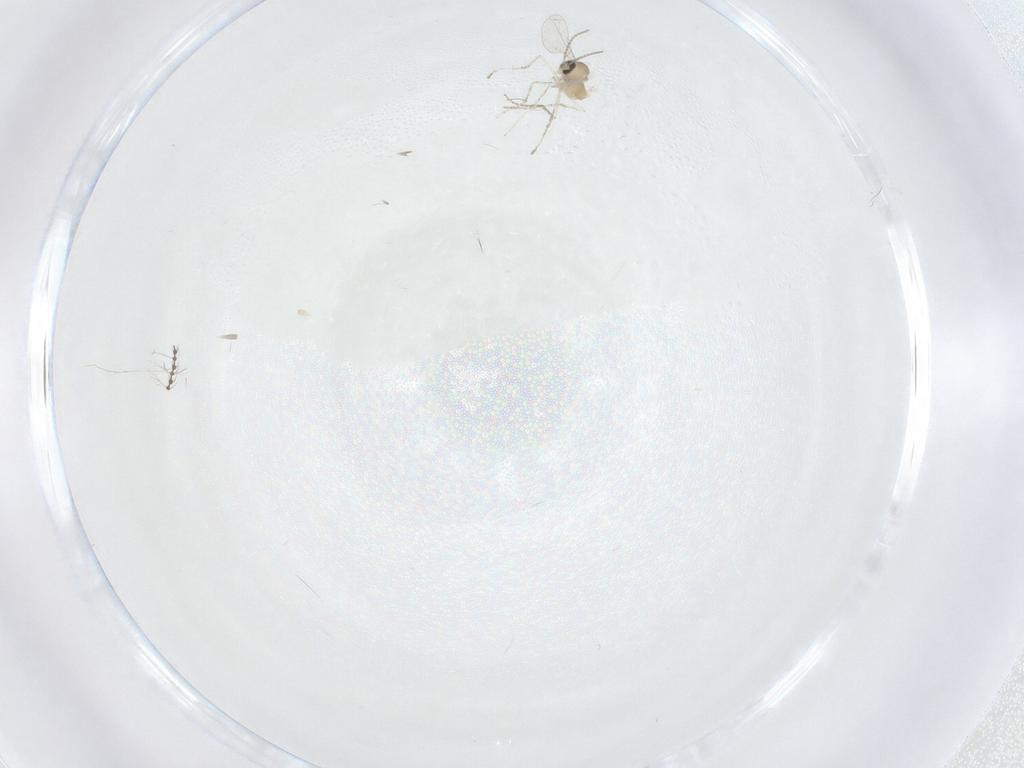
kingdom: Animalia
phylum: Arthropoda
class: Insecta
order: Diptera
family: Cecidomyiidae
